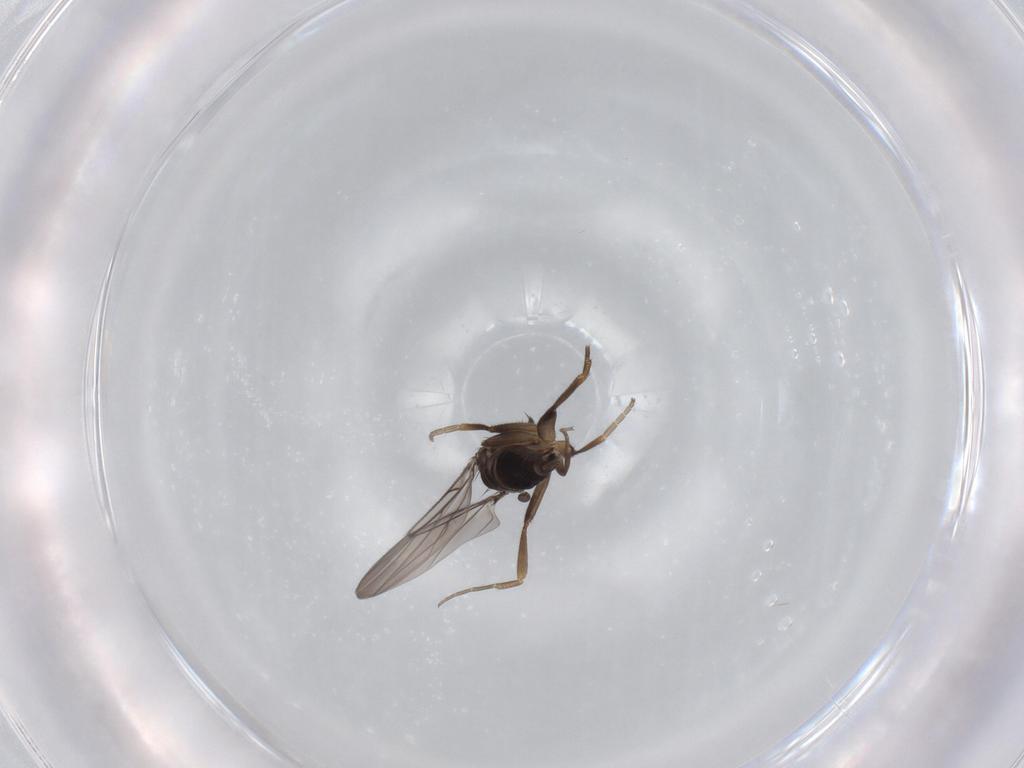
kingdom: Animalia
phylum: Arthropoda
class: Insecta
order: Diptera
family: Phoridae
